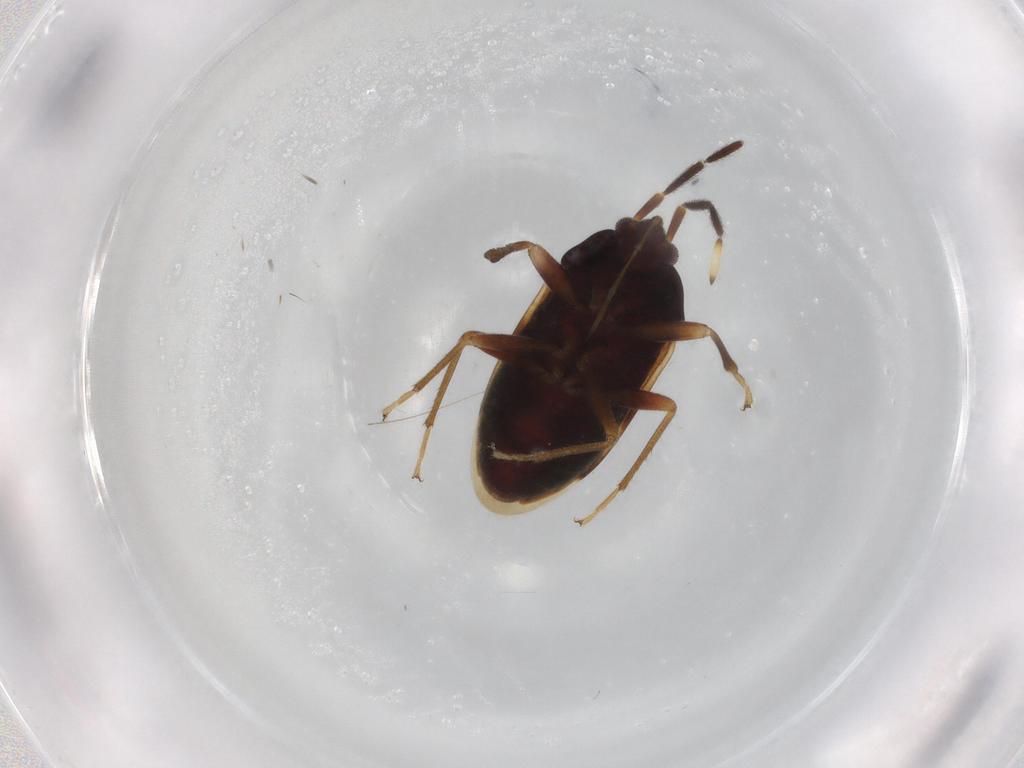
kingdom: Animalia
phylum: Arthropoda
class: Insecta
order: Hemiptera
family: Rhyparochromidae
